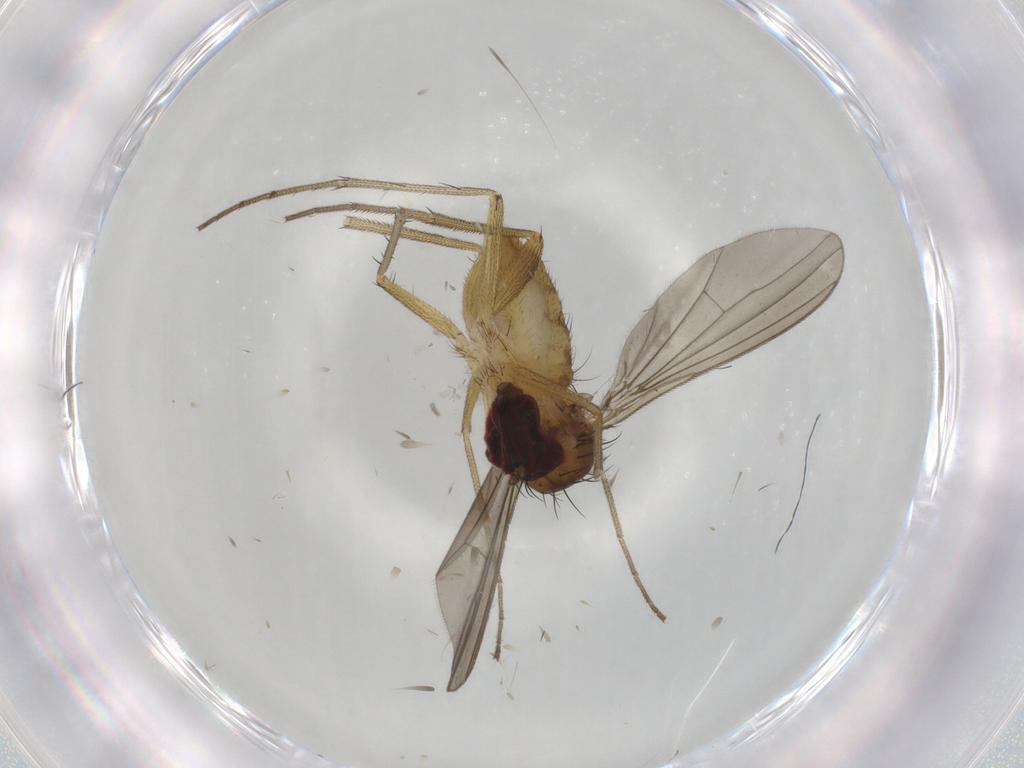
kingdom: Animalia
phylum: Arthropoda
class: Insecta
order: Diptera
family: Dolichopodidae
